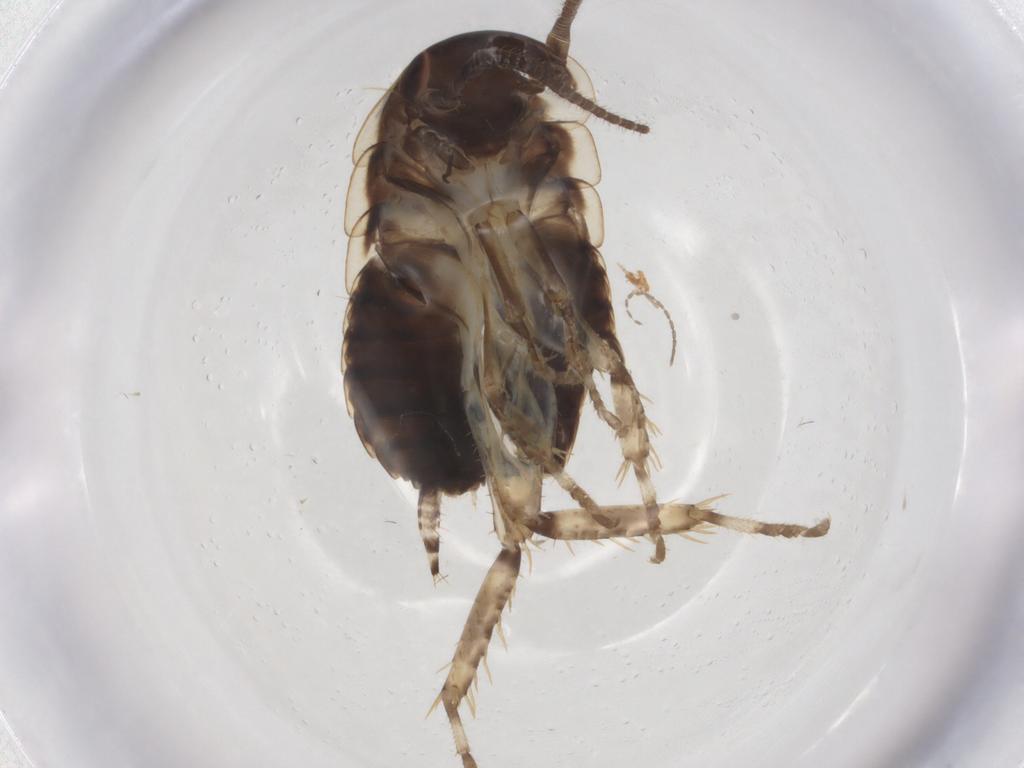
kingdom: Animalia
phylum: Arthropoda
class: Insecta
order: Blattodea
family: Blaberidae
